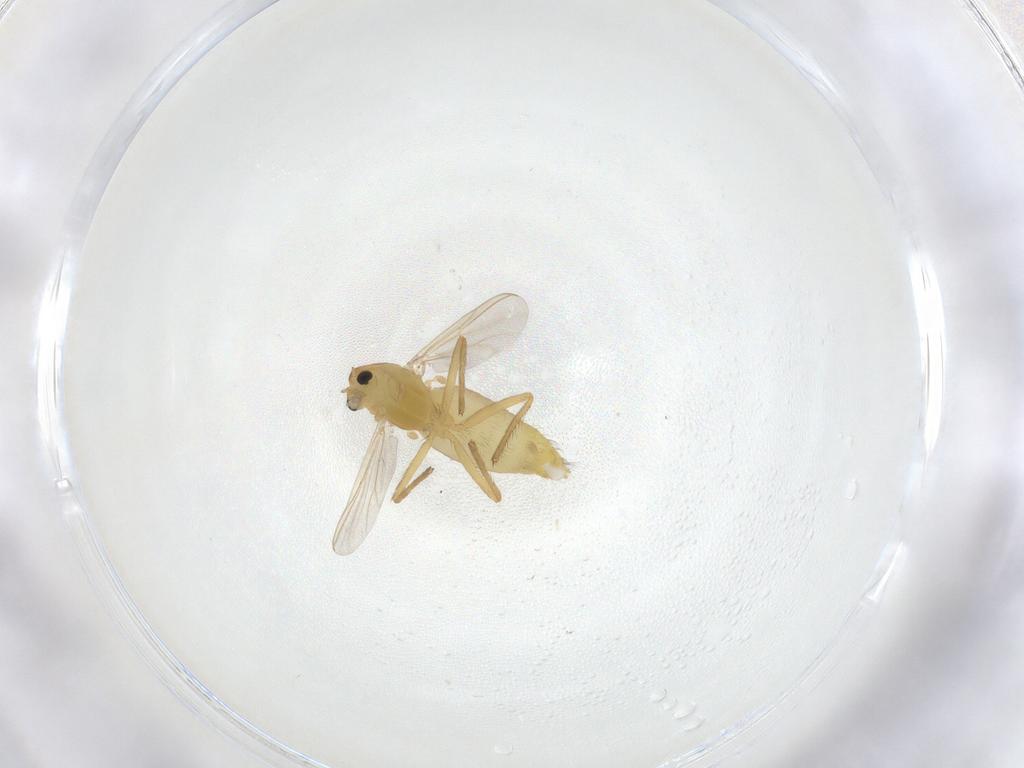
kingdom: Animalia
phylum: Arthropoda
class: Insecta
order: Diptera
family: Chironomidae
